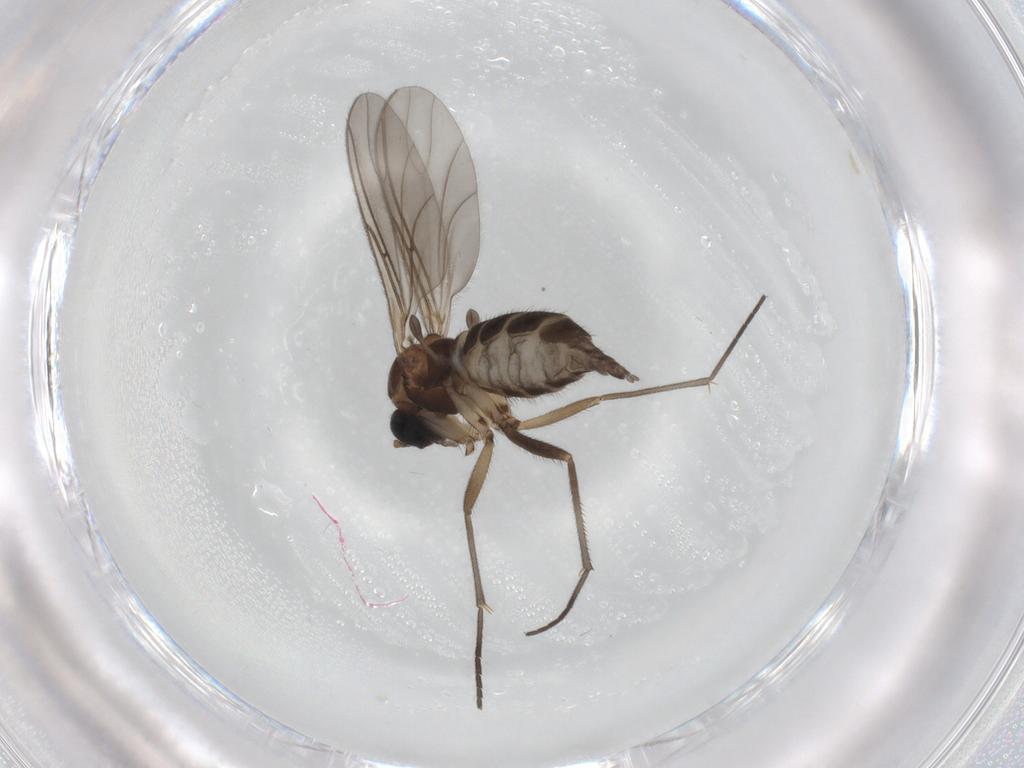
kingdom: Animalia
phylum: Arthropoda
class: Insecta
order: Diptera
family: Sciaridae
